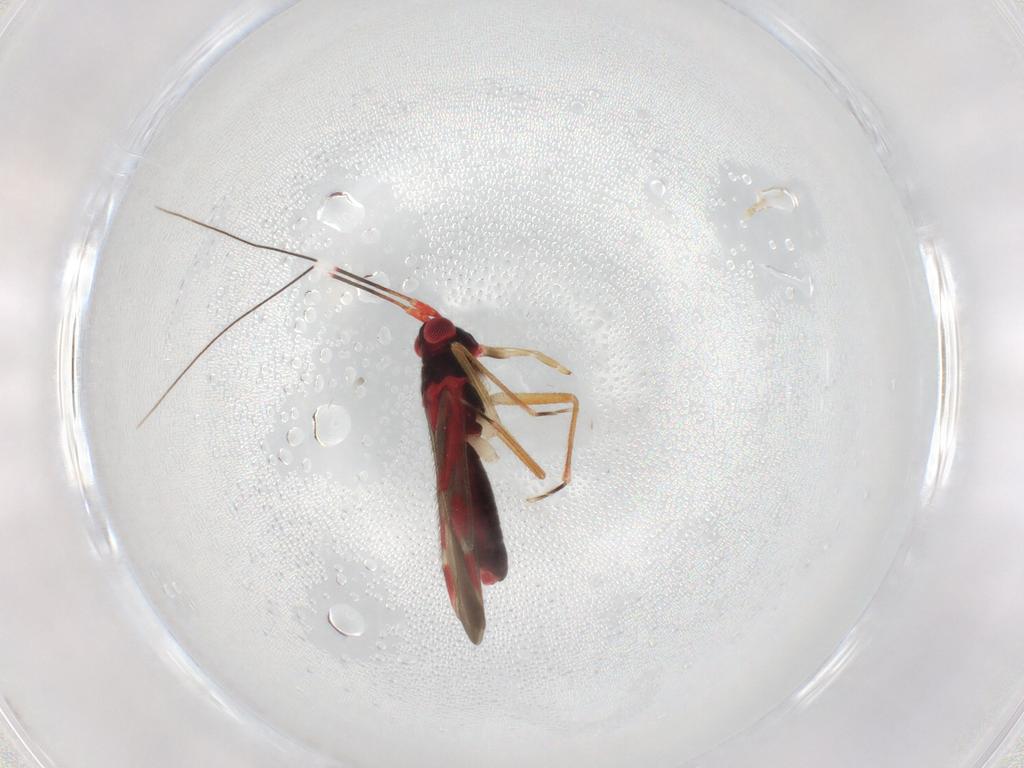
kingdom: Animalia
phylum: Arthropoda
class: Insecta
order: Hemiptera
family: Miridae
